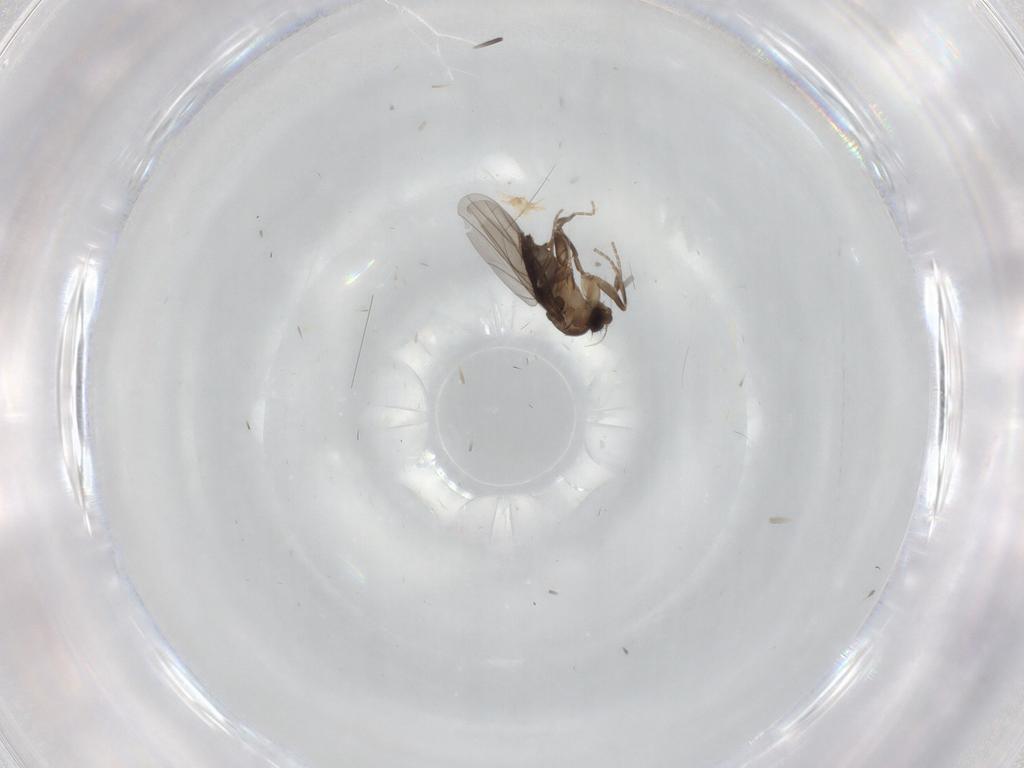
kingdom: Animalia
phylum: Arthropoda
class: Insecta
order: Diptera
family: Phoridae
